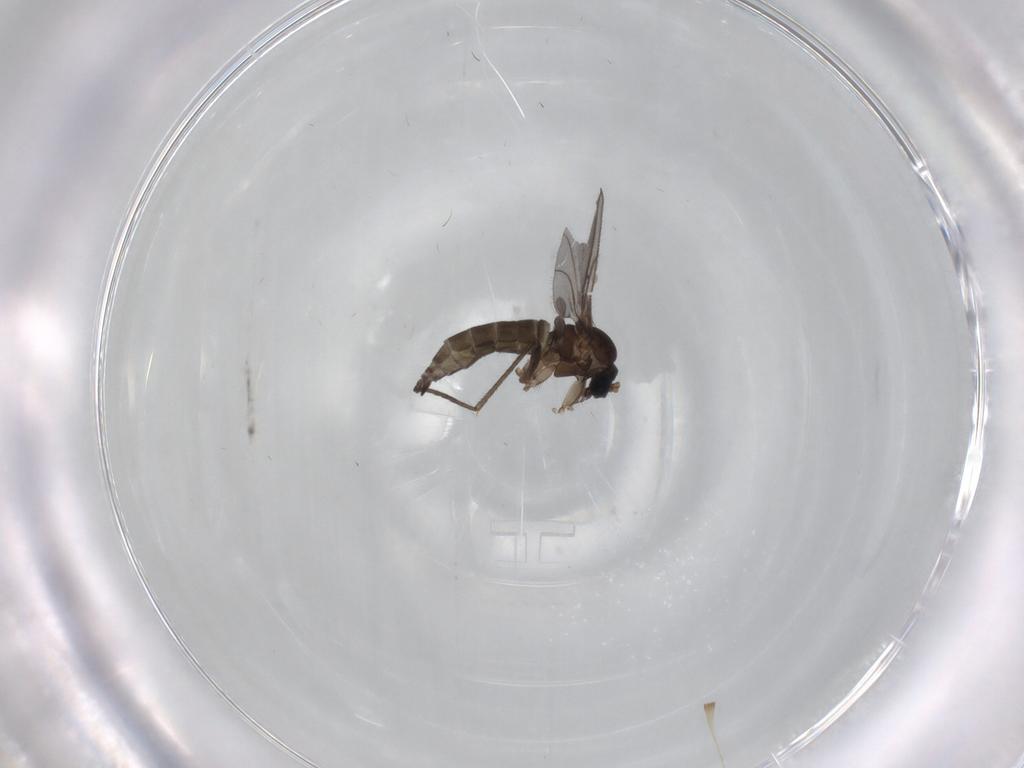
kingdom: Animalia
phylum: Arthropoda
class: Insecta
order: Diptera
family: Sciaridae
